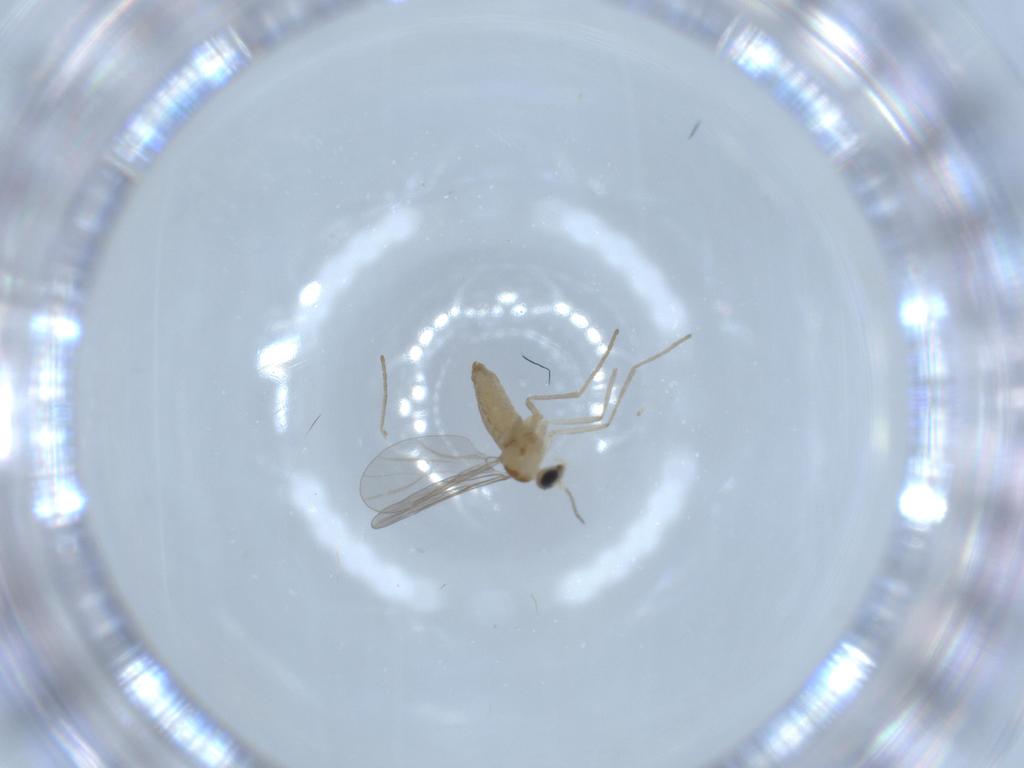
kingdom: Animalia
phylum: Arthropoda
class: Insecta
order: Diptera
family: Cecidomyiidae
